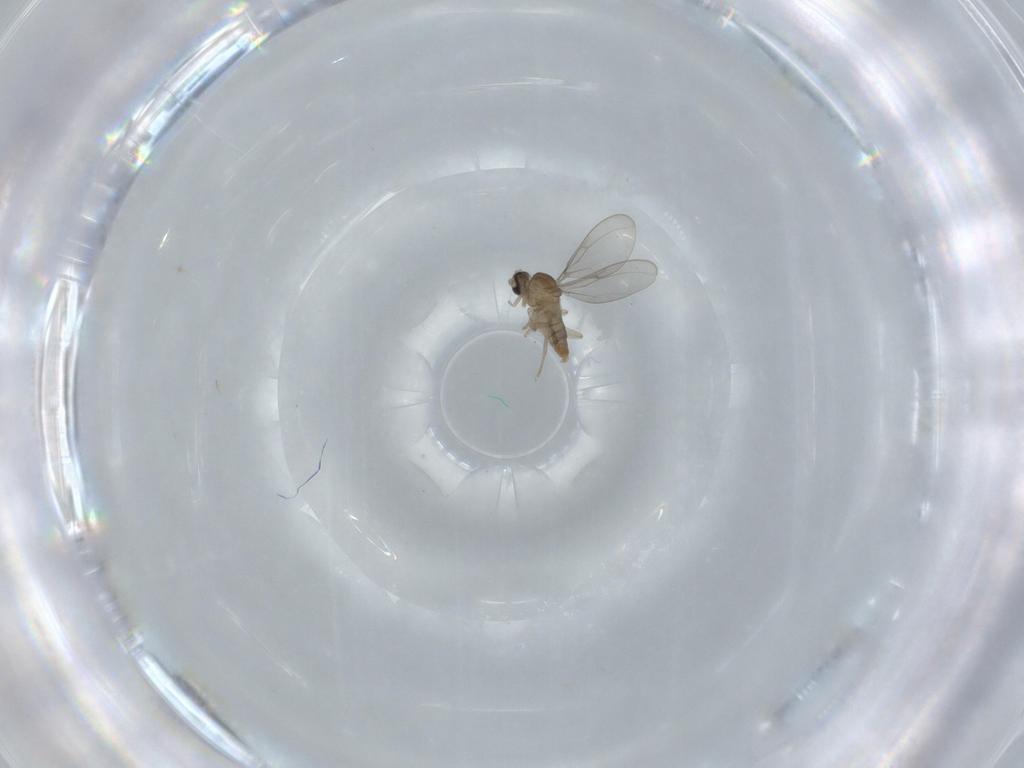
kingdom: Animalia
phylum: Arthropoda
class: Insecta
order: Diptera
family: Cecidomyiidae
